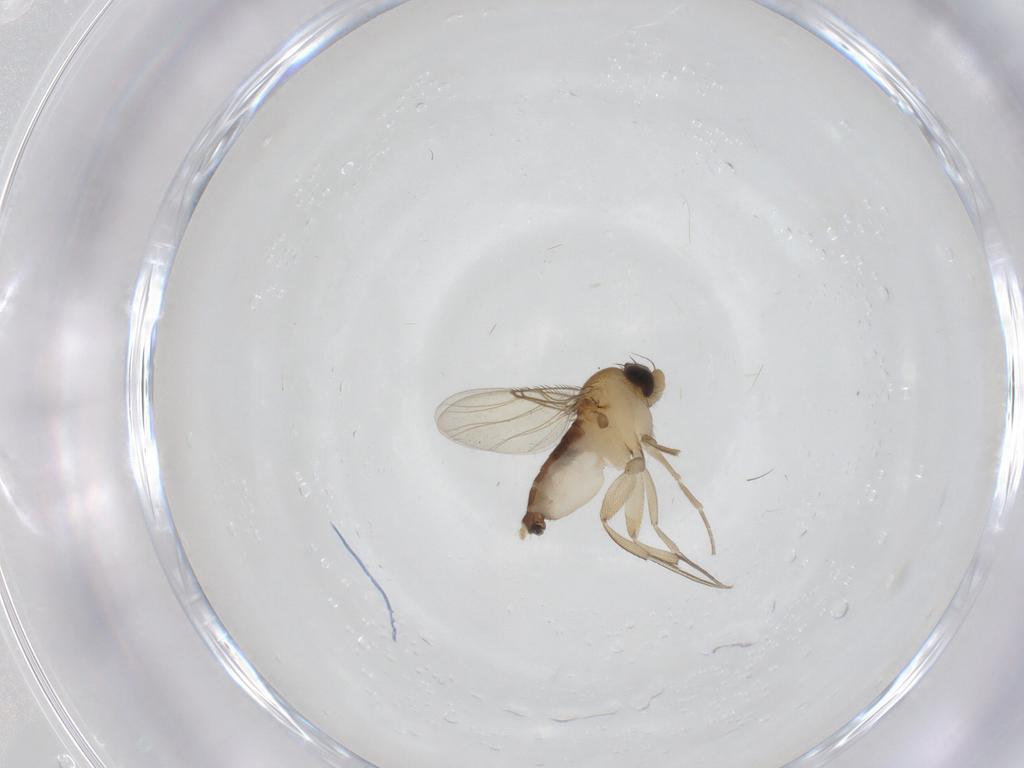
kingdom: Animalia
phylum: Arthropoda
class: Insecta
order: Diptera
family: Phoridae
